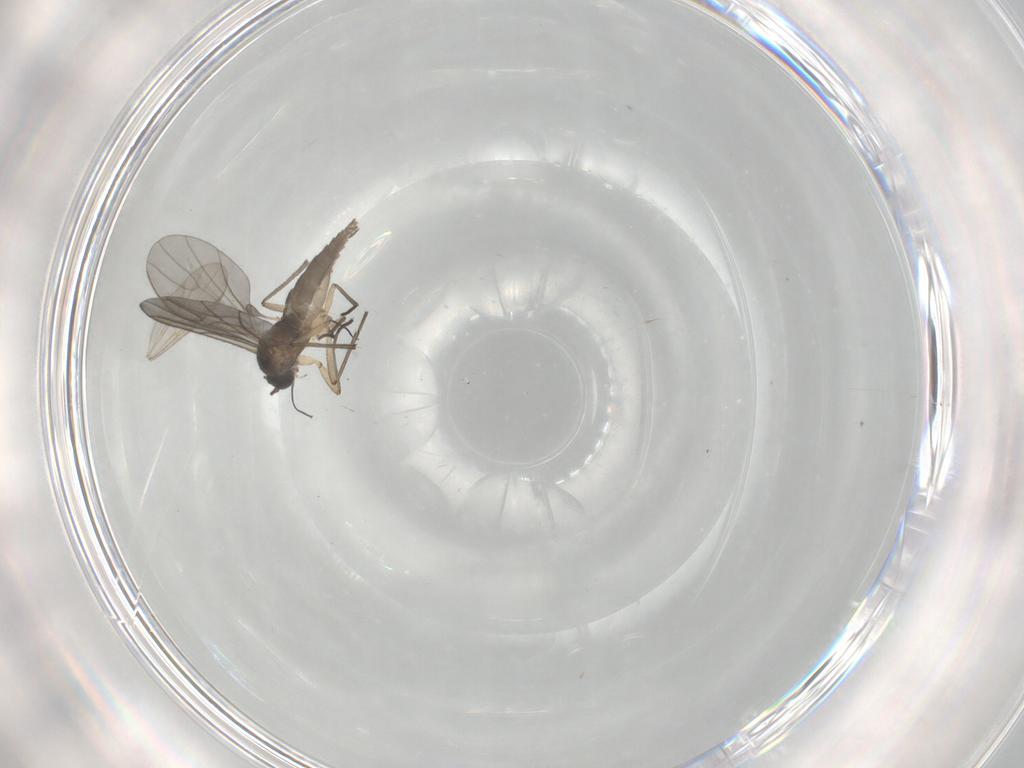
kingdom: Animalia
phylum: Arthropoda
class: Insecta
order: Diptera
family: Sciaridae
